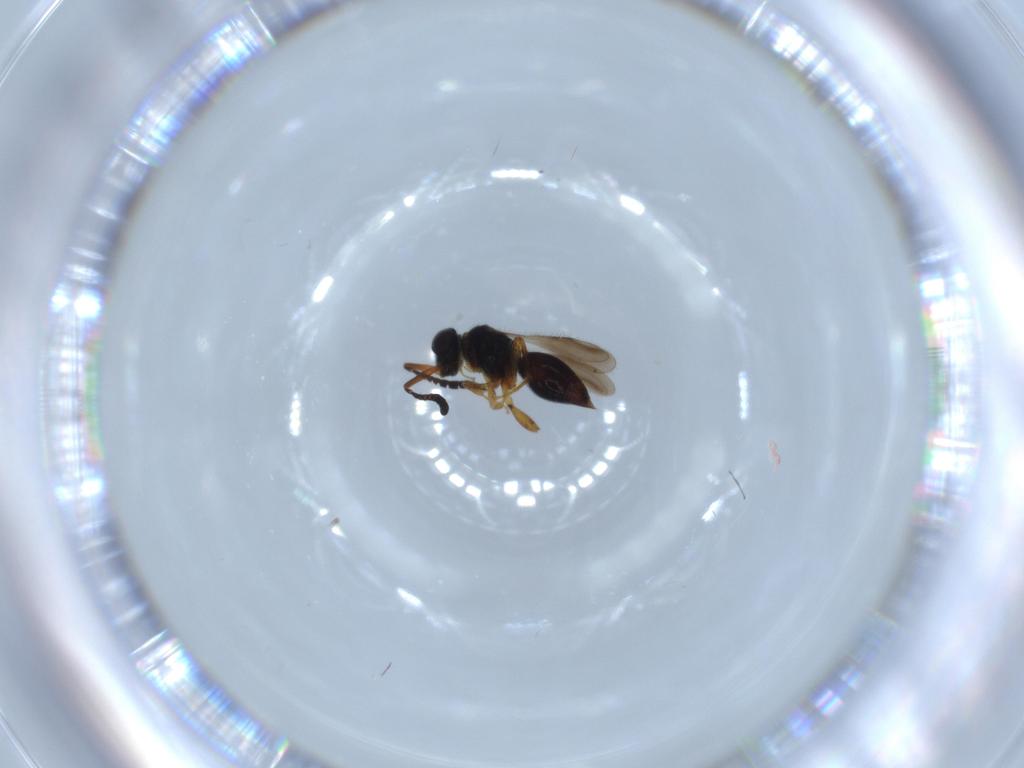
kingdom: Animalia
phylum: Arthropoda
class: Insecta
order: Hymenoptera
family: Ceraphronidae
